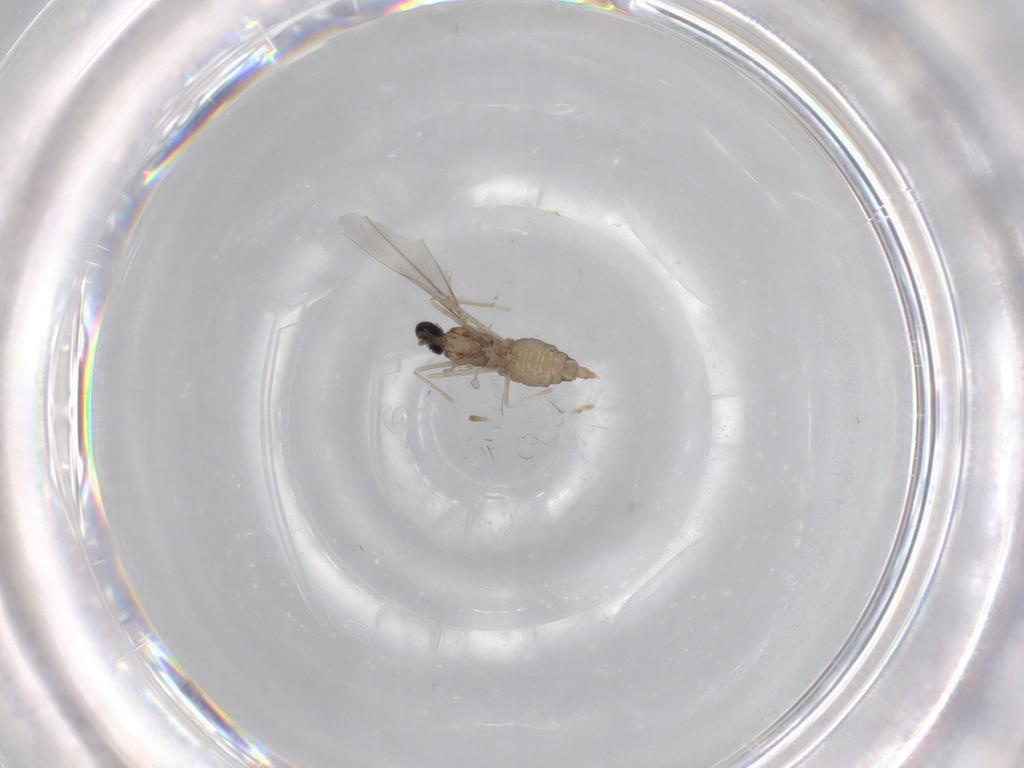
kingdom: Animalia
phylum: Arthropoda
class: Insecta
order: Diptera
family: Cecidomyiidae
